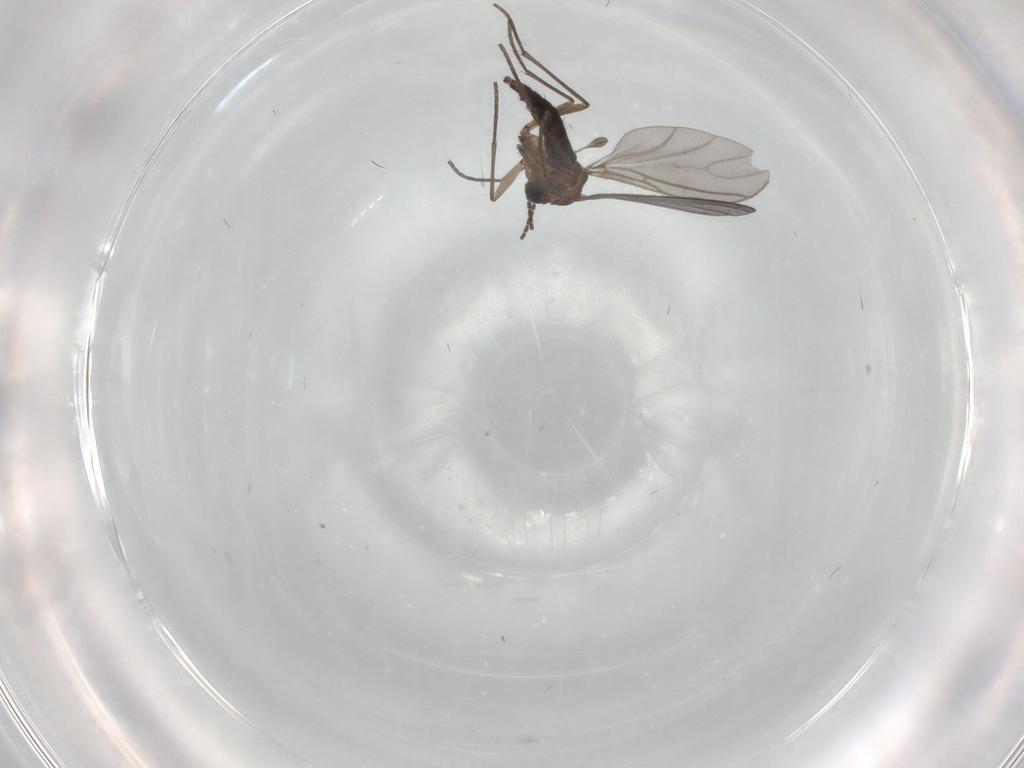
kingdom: Animalia
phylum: Arthropoda
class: Insecta
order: Diptera
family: Sciaridae
